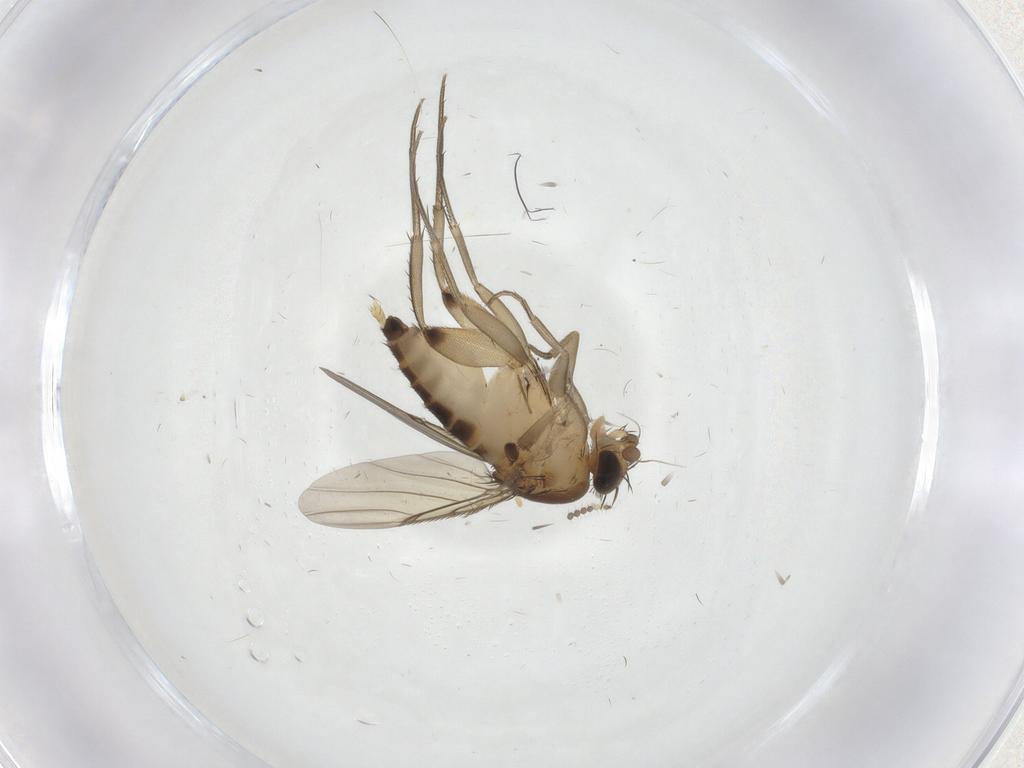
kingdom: Animalia
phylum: Arthropoda
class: Insecta
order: Diptera
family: Limoniidae
